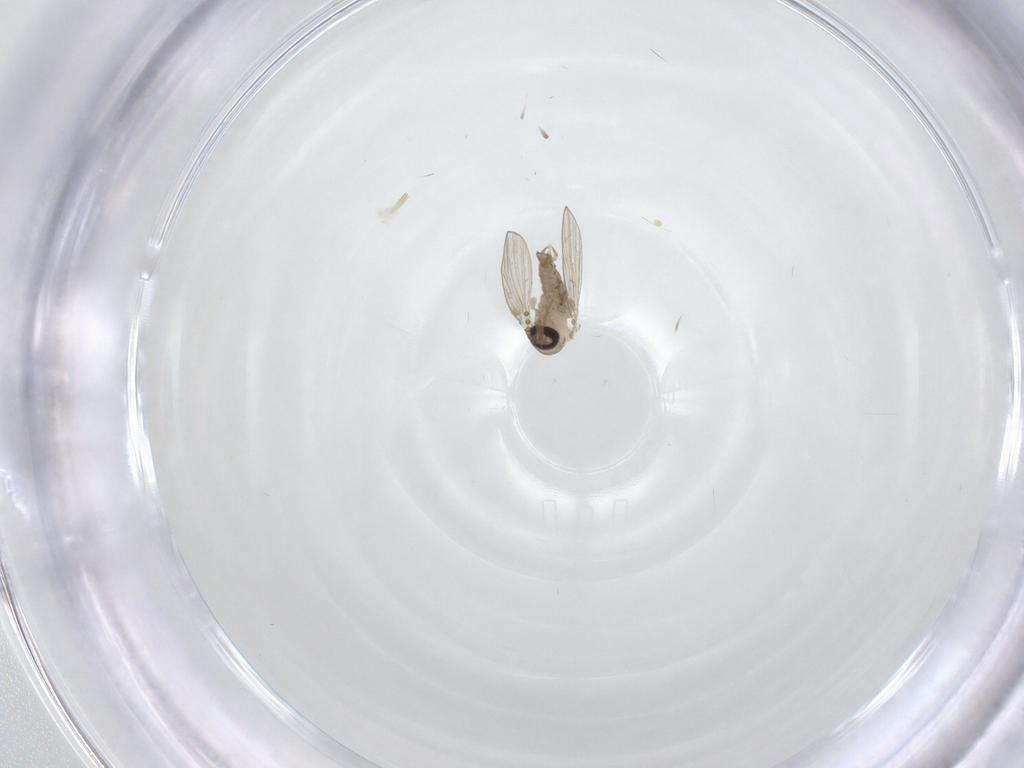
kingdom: Animalia
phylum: Arthropoda
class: Insecta
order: Diptera
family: Psychodidae
